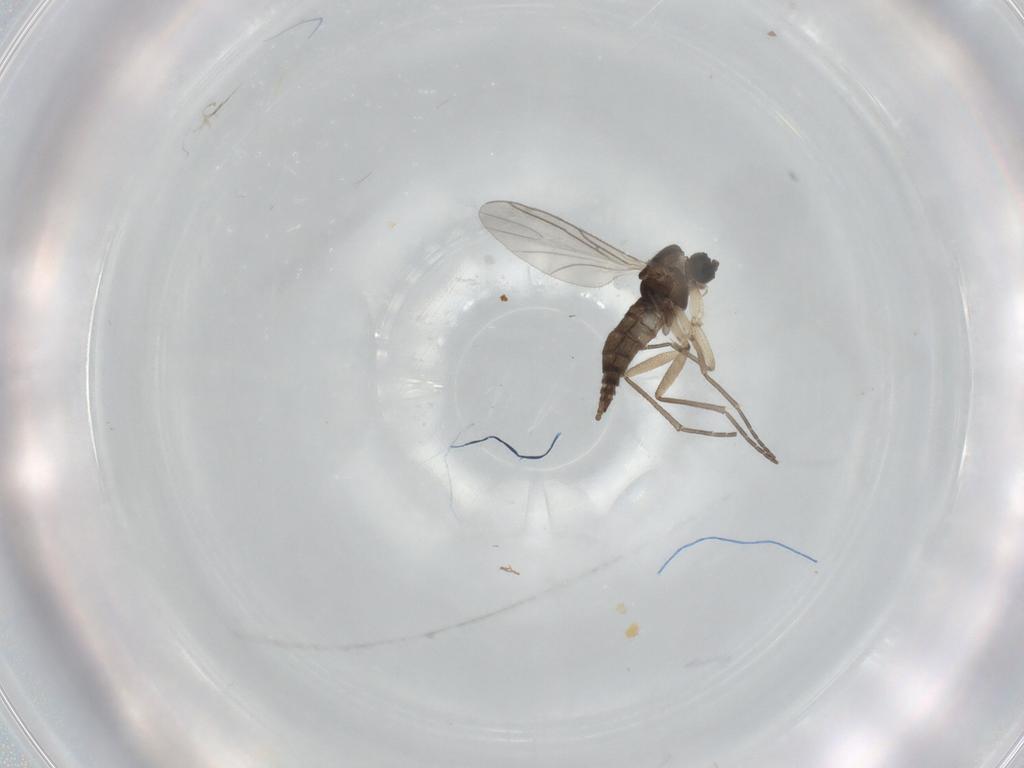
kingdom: Animalia
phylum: Arthropoda
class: Insecta
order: Diptera
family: Sciaridae
